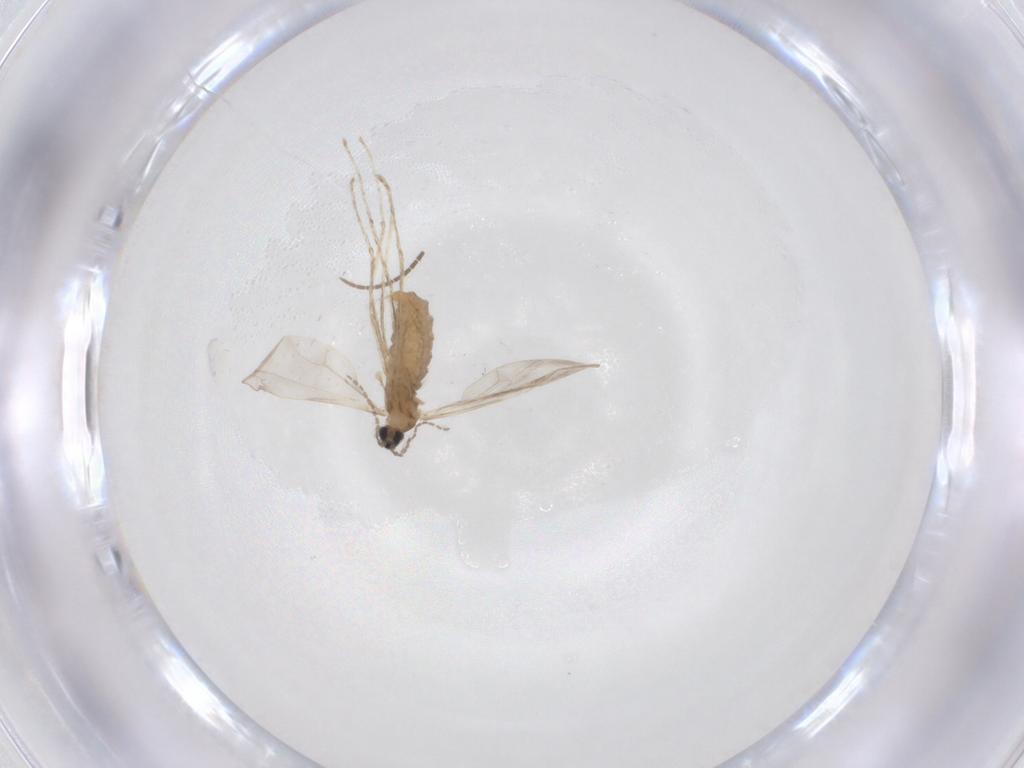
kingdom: Animalia
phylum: Arthropoda
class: Insecta
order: Diptera
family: Cecidomyiidae
